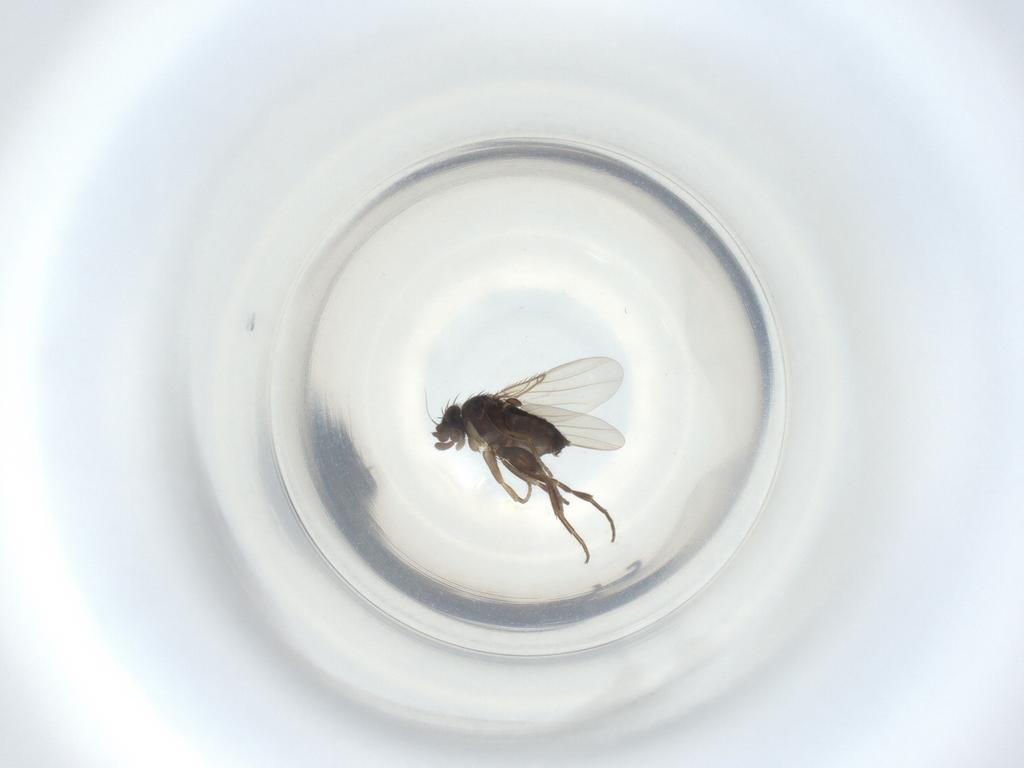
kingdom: Animalia
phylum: Arthropoda
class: Insecta
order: Diptera
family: Phoridae
